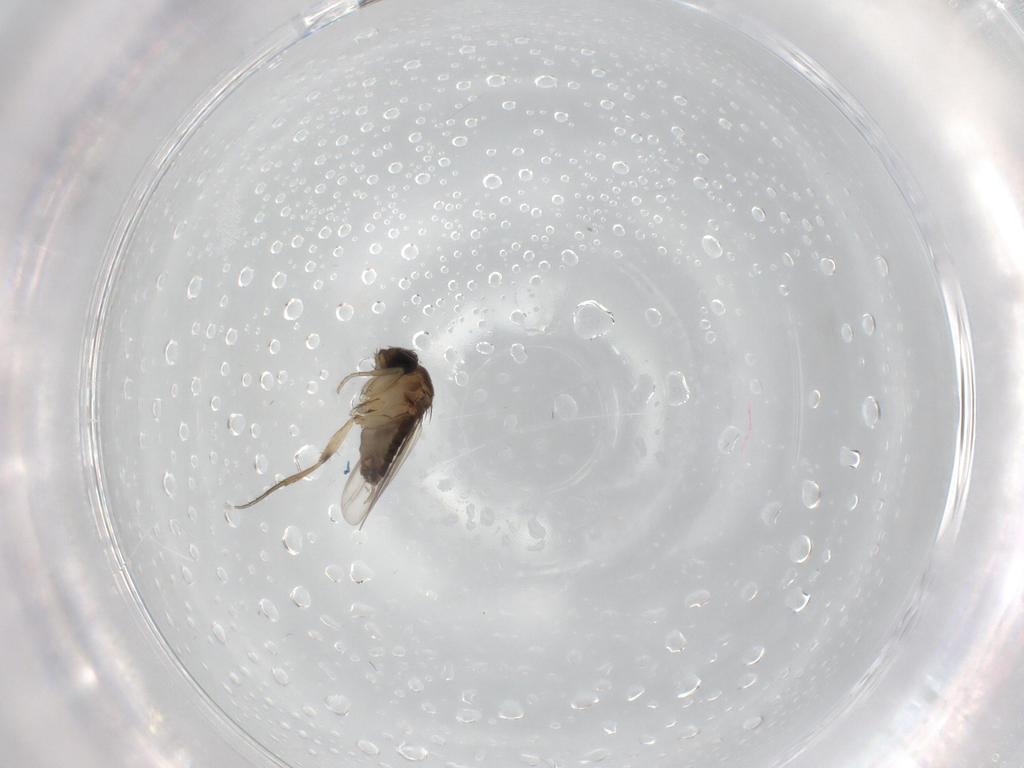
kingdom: Animalia
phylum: Arthropoda
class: Insecta
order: Diptera
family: Phoridae
